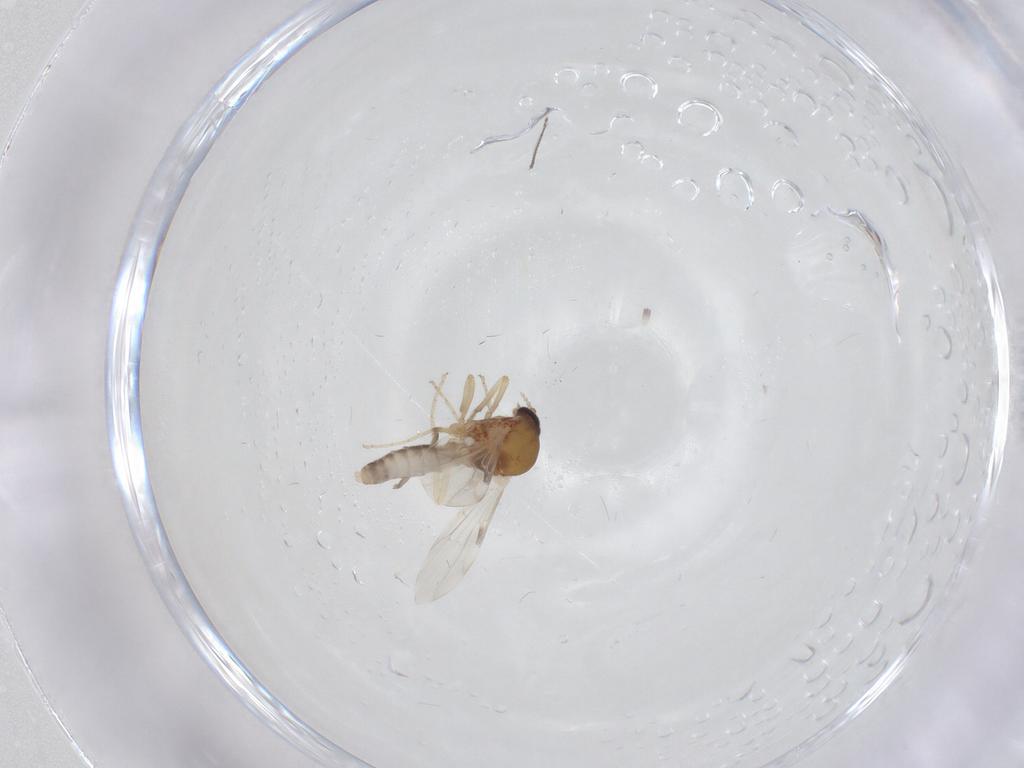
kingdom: Animalia
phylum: Arthropoda
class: Insecta
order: Diptera
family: Ceratopogonidae
